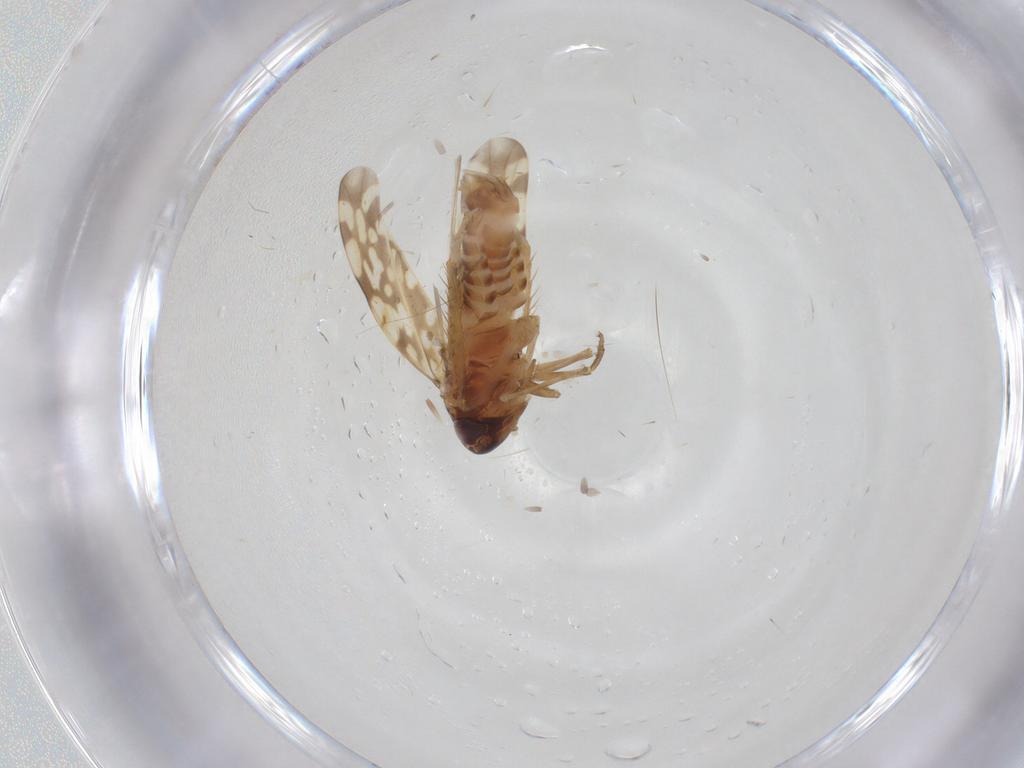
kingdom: Animalia
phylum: Arthropoda
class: Insecta
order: Hemiptera
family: Cicadellidae
